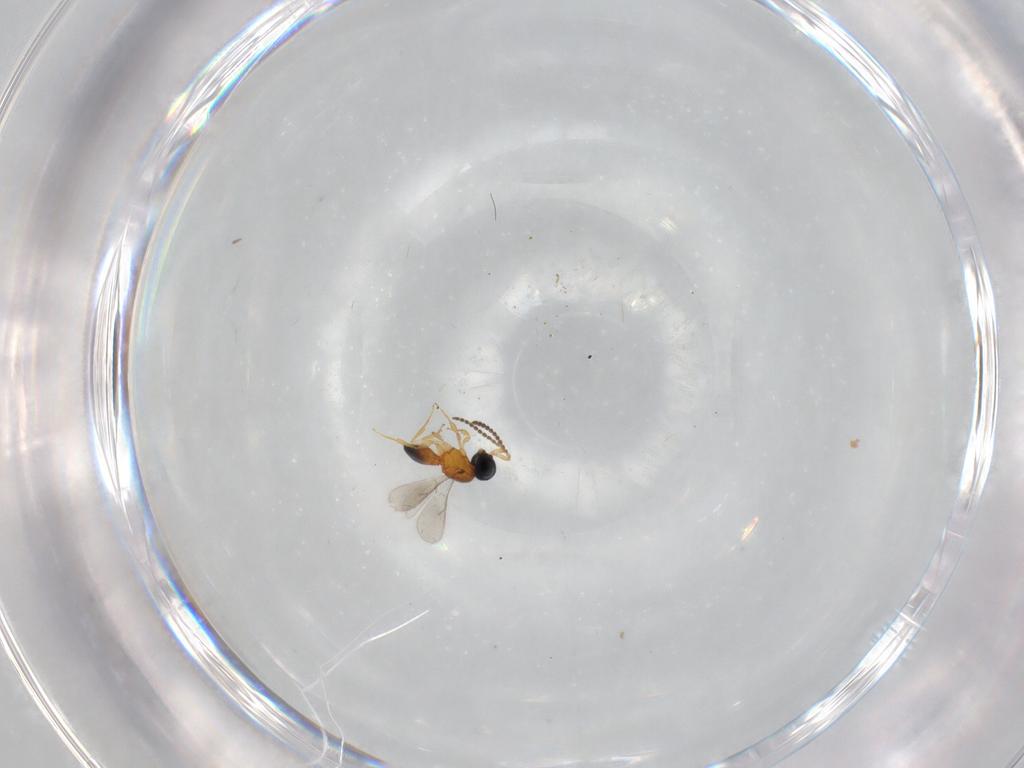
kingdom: Animalia
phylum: Arthropoda
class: Insecta
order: Hymenoptera
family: Scelionidae
